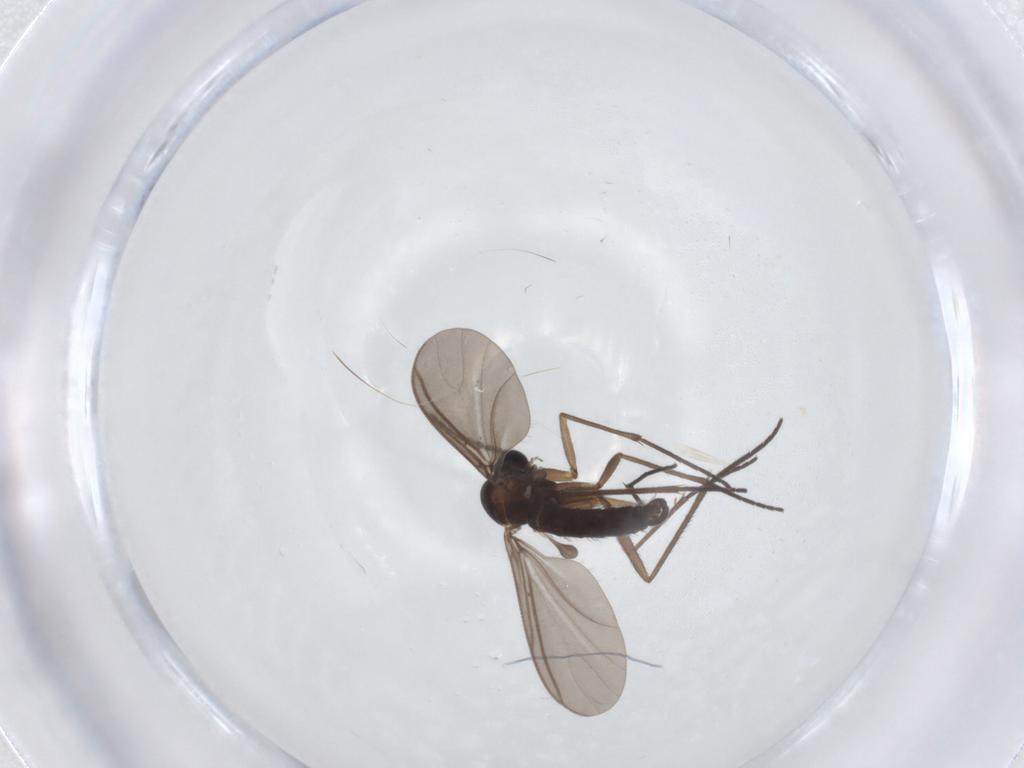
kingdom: Animalia
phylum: Arthropoda
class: Insecta
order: Diptera
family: Sciaridae
